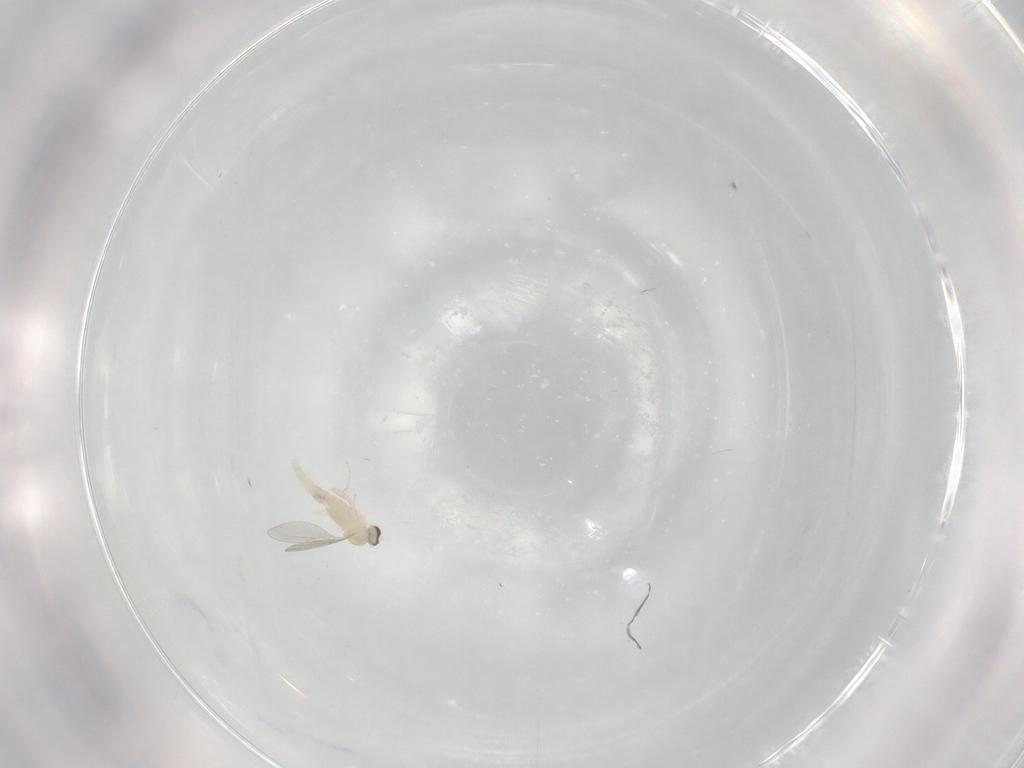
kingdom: Animalia
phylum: Arthropoda
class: Insecta
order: Diptera
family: Cecidomyiidae
